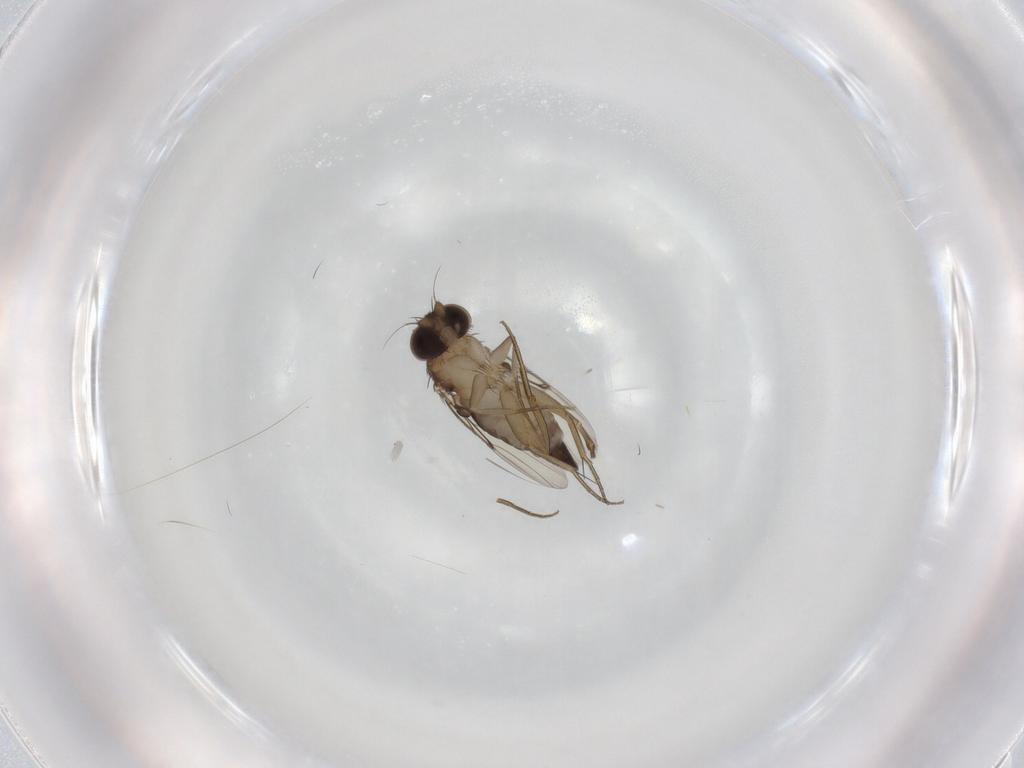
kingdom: Animalia
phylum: Arthropoda
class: Insecta
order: Diptera
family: Phoridae
